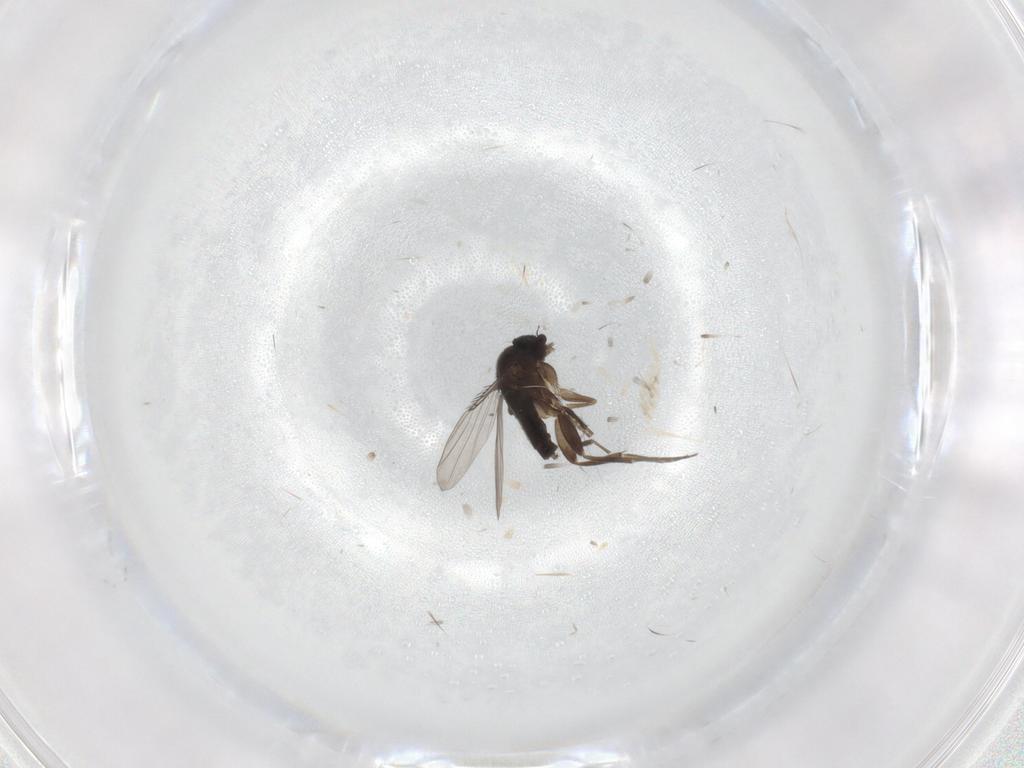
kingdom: Animalia
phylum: Arthropoda
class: Insecta
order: Diptera
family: Phoridae
